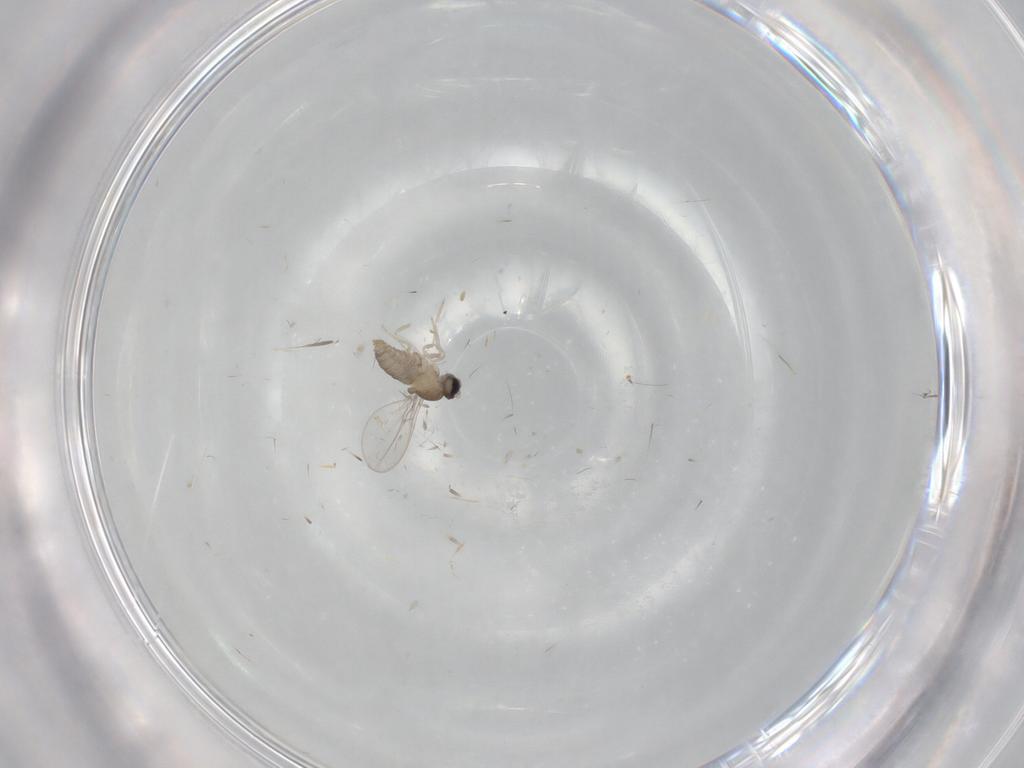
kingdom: Animalia
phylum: Arthropoda
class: Insecta
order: Diptera
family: Cecidomyiidae
